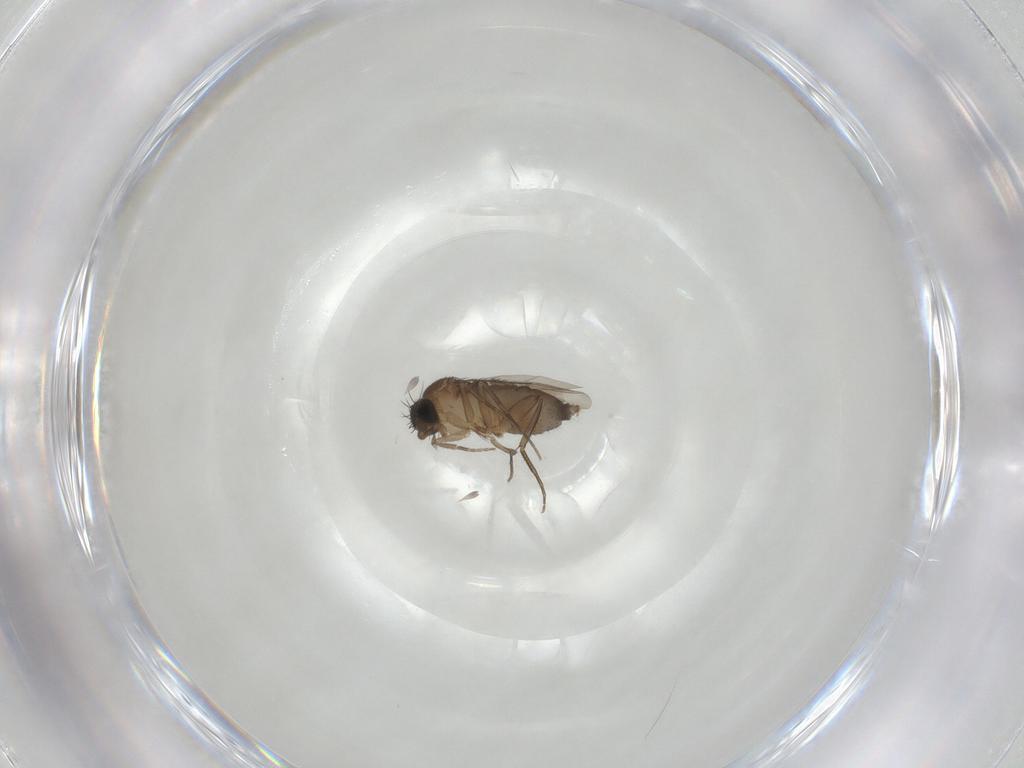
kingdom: Animalia
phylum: Arthropoda
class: Insecta
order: Diptera
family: Phoridae
